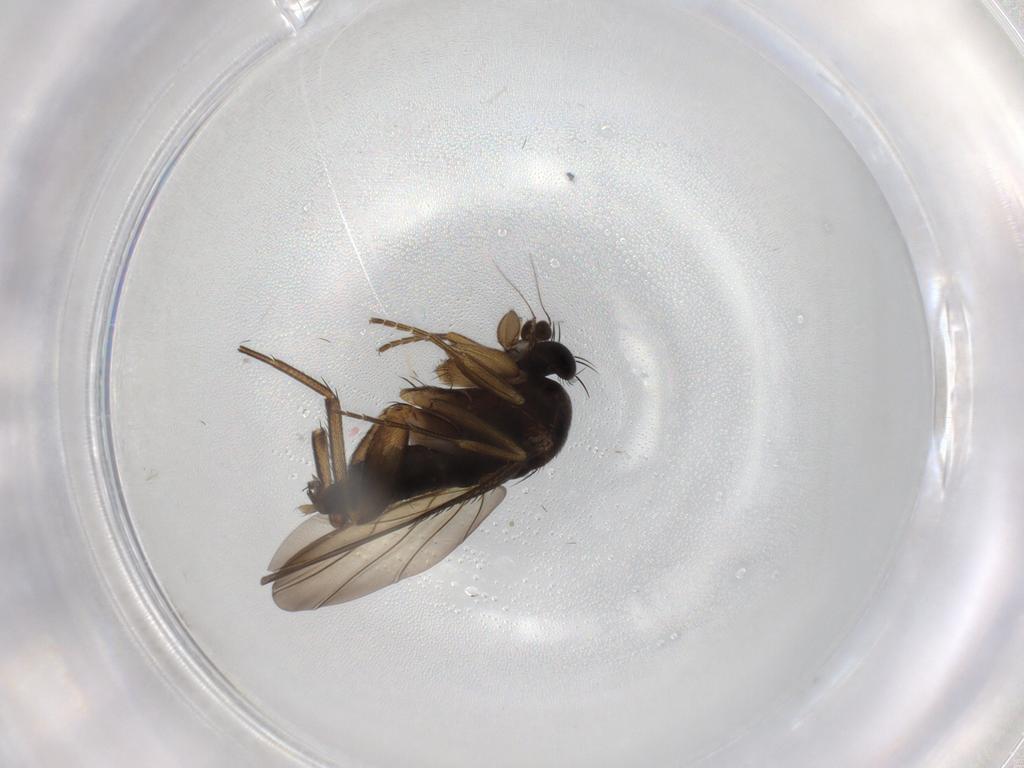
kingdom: Animalia
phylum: Arthropoda
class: Insecta
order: Diptera
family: Phoridae
